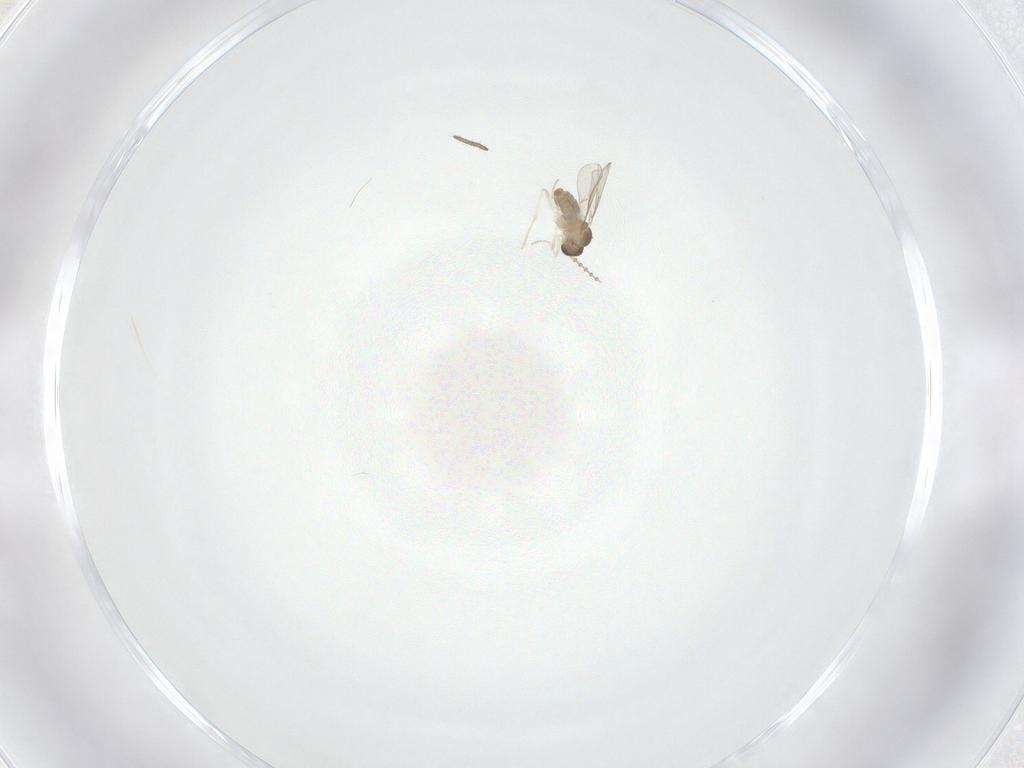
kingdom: Animalia
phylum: Arthropoda
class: Insecta
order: Diptera
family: Cecidomyiidae
